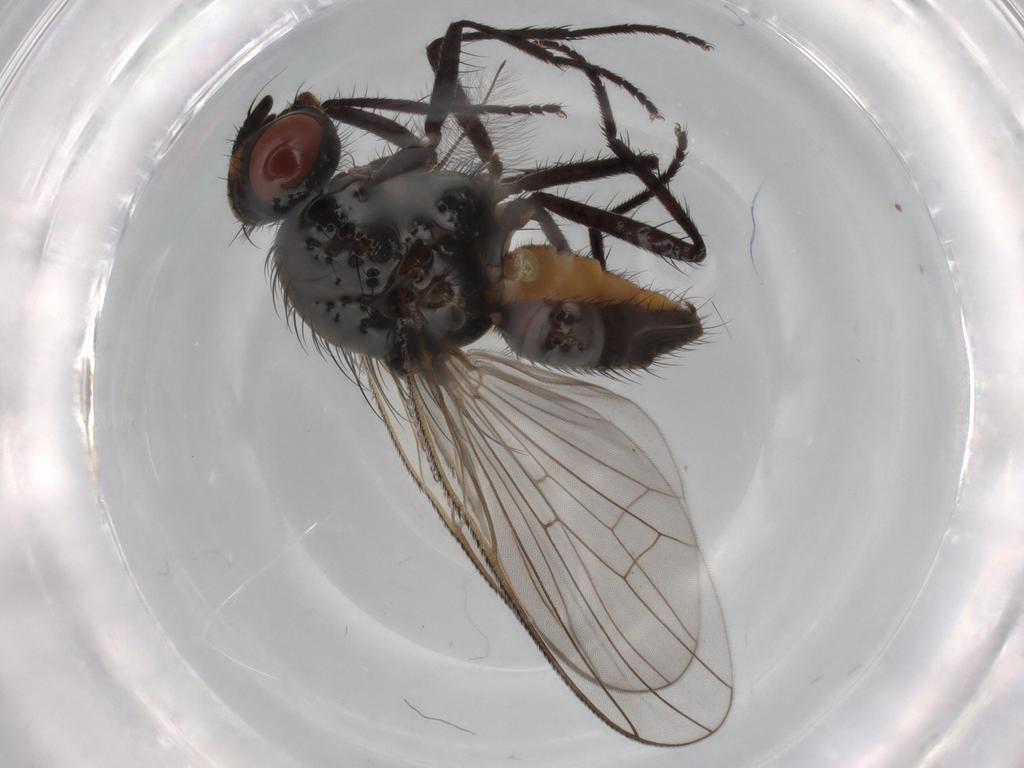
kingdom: Animalia
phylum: Arthropoda
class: Insecta
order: Diptera
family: Anthomyiidae
